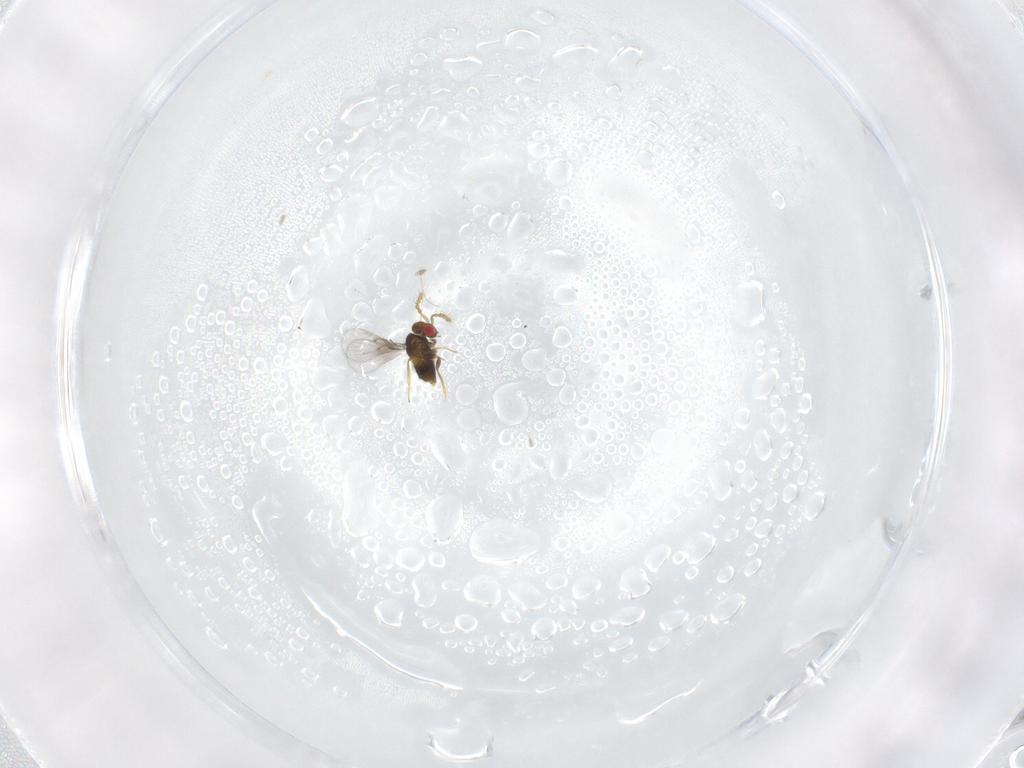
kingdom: Animalia
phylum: Arthropoda
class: Insecta
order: Hymenoptera
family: Trichogrammatidae
